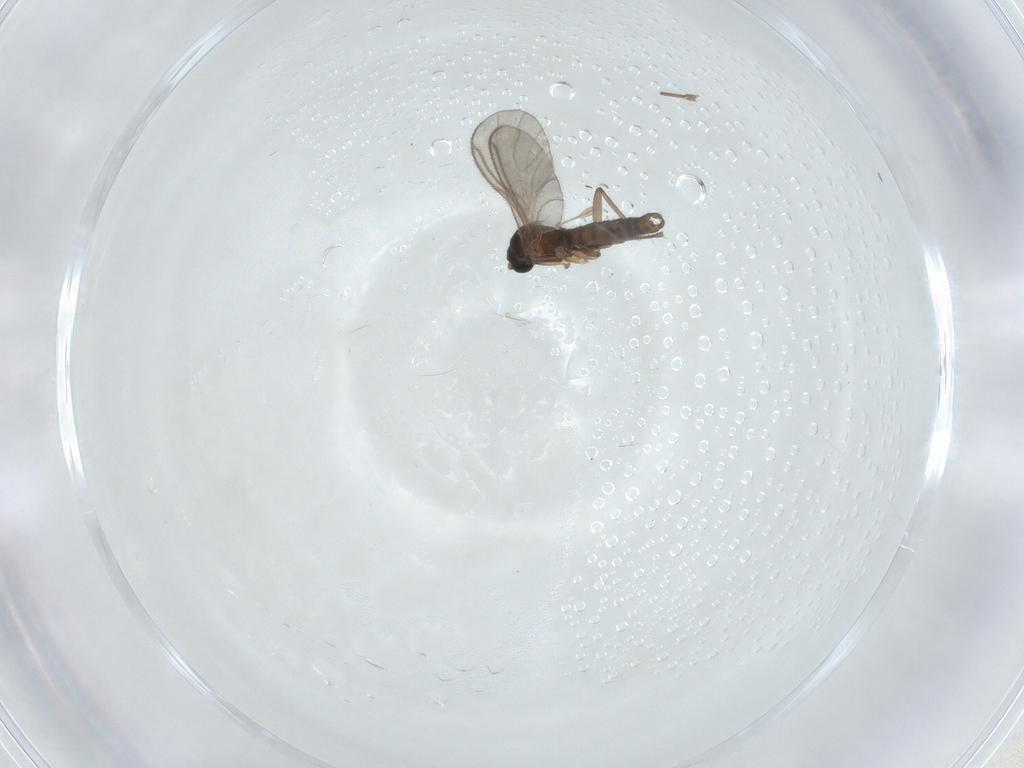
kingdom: Animalia
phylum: Arthropoda
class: Insecta
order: Diptera
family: Sciaridae
